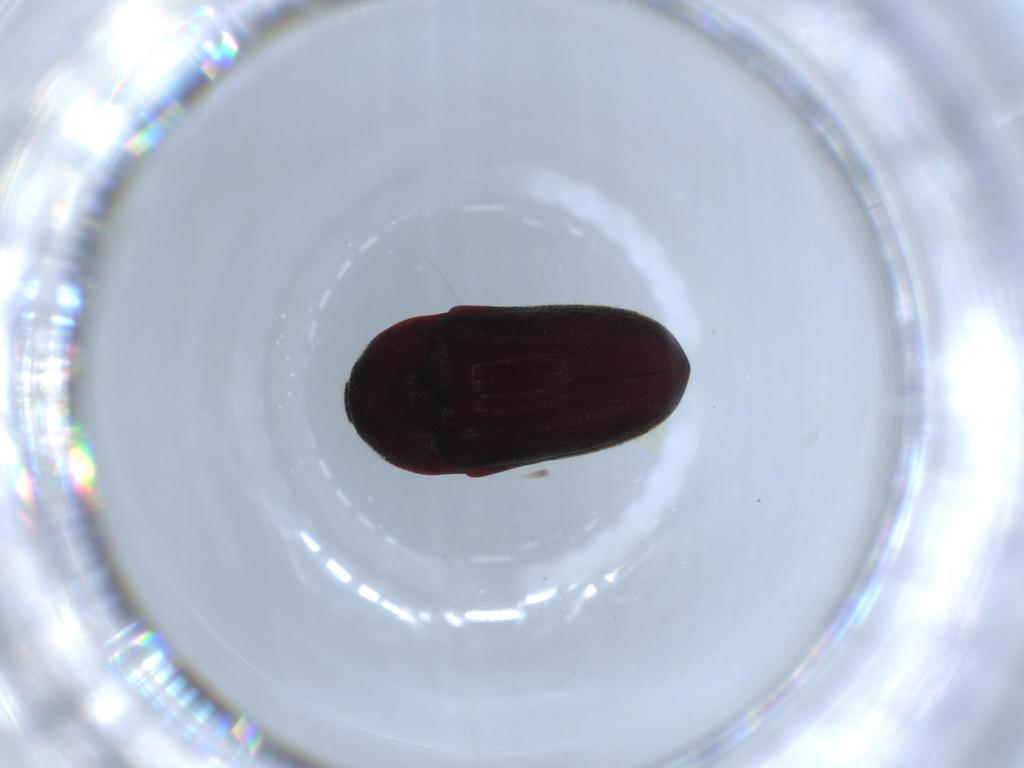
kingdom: Animalia
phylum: Arthropoda
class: Insecta
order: Coleoptera
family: Throscidae
